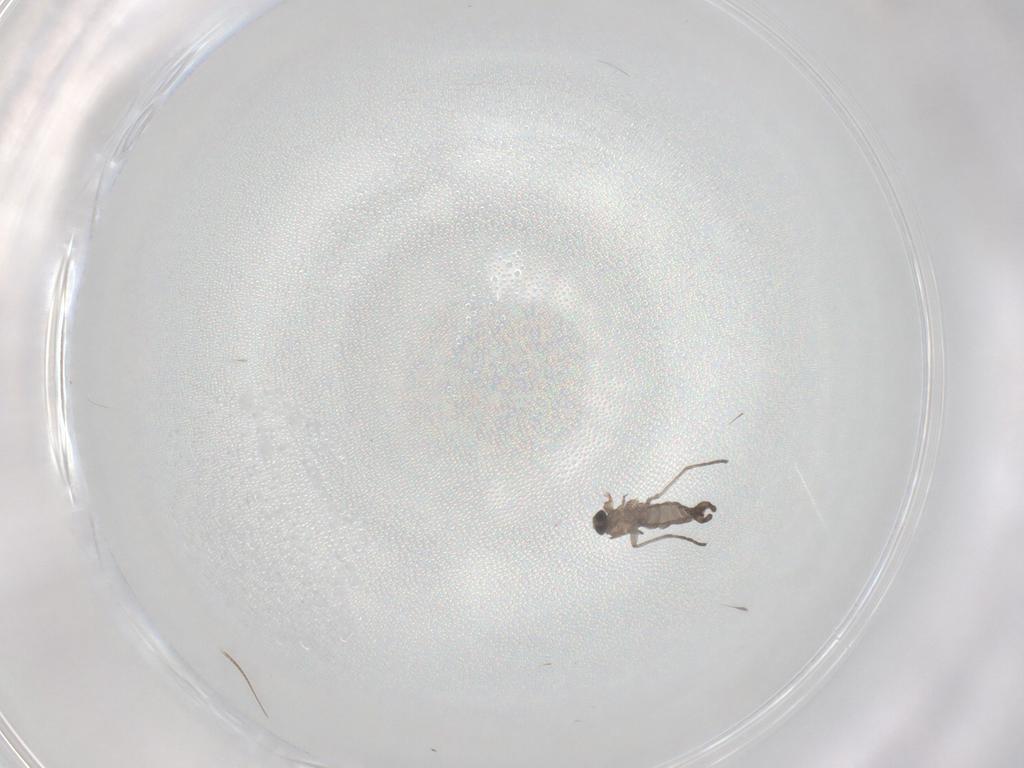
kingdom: Animalia
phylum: Arthropoda
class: Insecta
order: Diptera
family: Sciaridae
